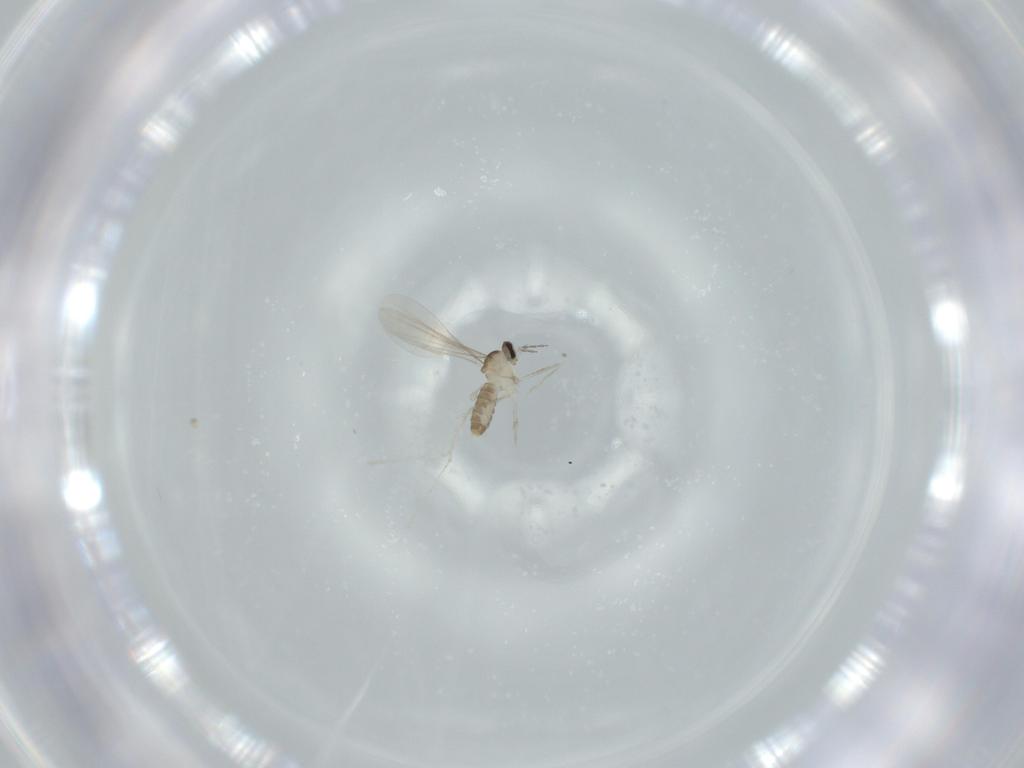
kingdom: Animalia
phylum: Arthropoda
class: Insecta
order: Diptera
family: Cecidomyiidae
